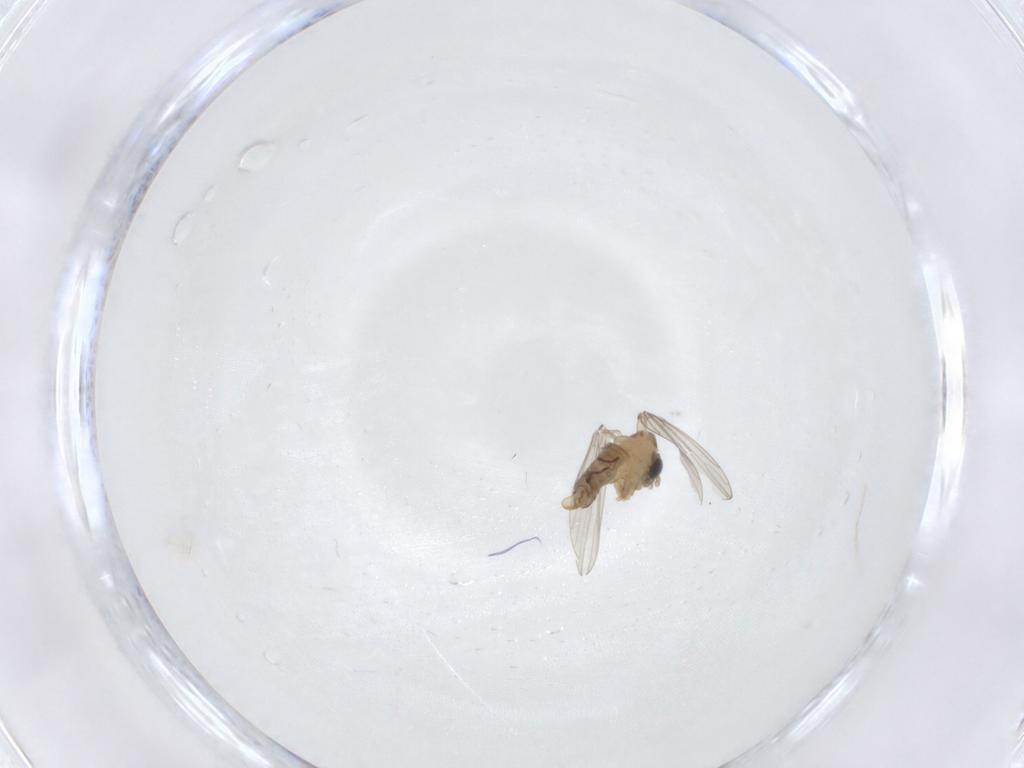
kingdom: Animalia
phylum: Arthropoda
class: Insecta
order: Diptera
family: Psychodidae
